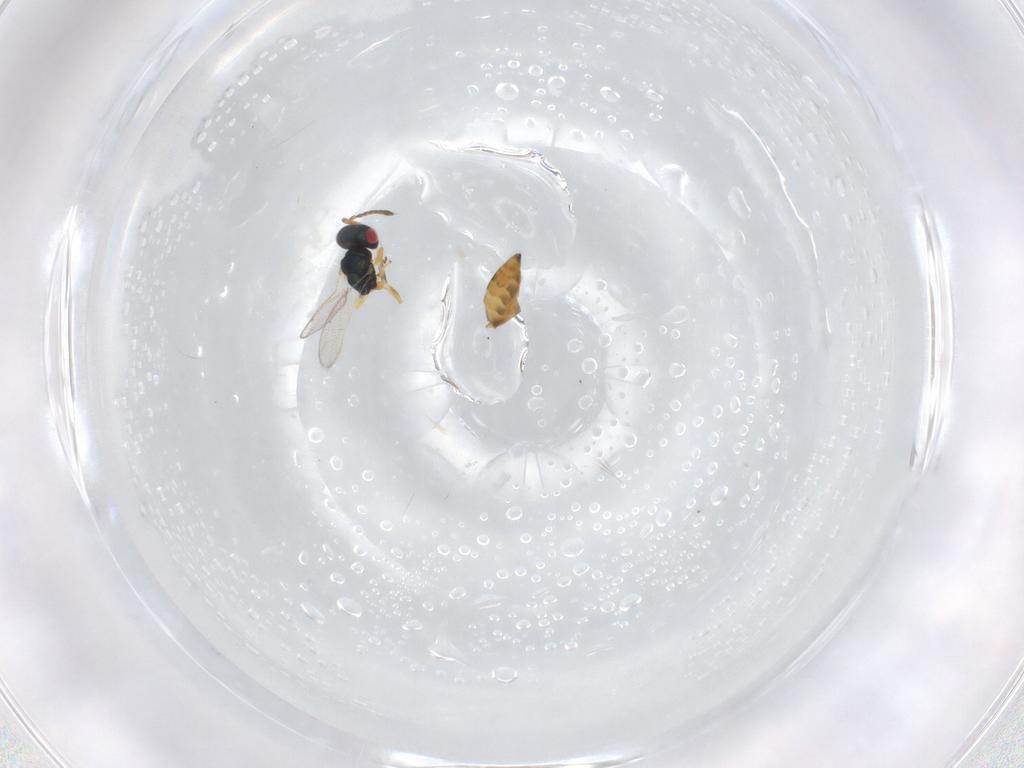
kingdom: Animalia
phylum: Arthropoda
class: Insecta
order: Hymenoptera
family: Pteromalidae
